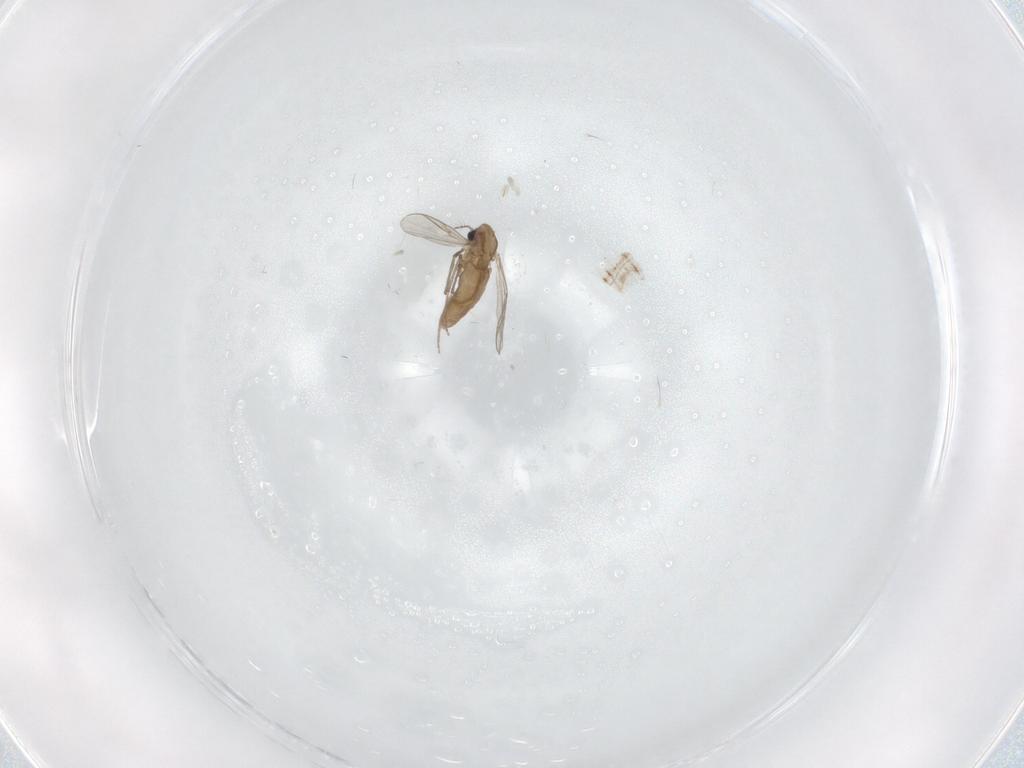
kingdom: Animalia
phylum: Arthropoda
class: Insecta
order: Diptera
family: Chironomidae
